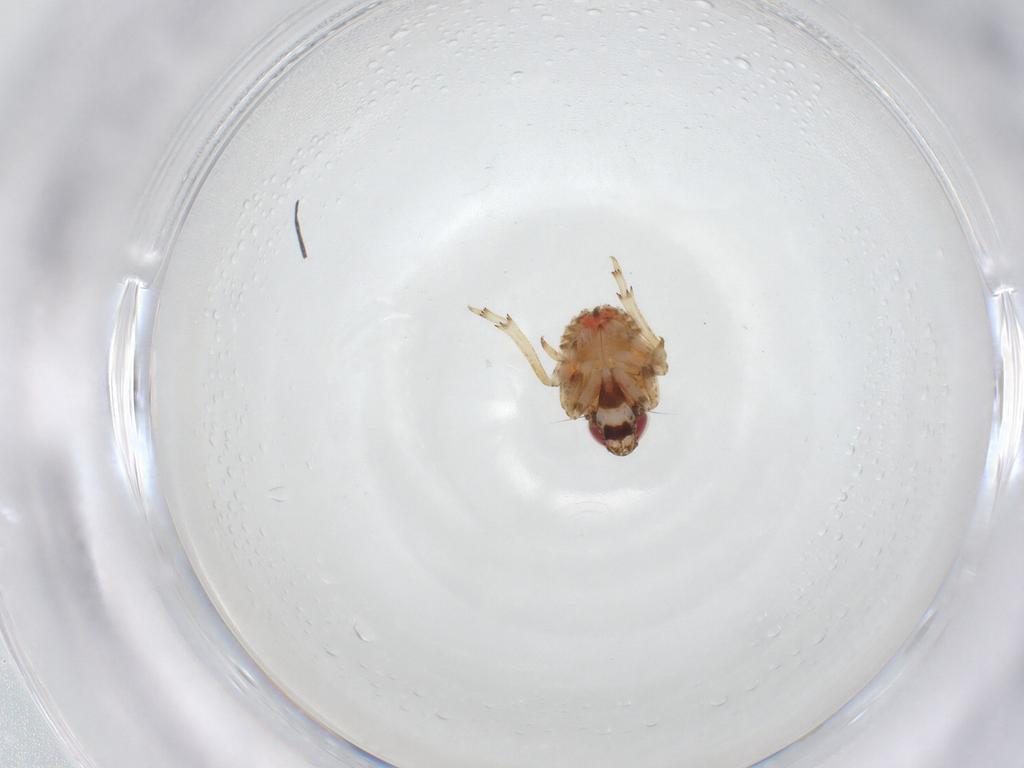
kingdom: Animalia
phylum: Arthropoda
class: Insecta
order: Hemiptera
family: Issidae
